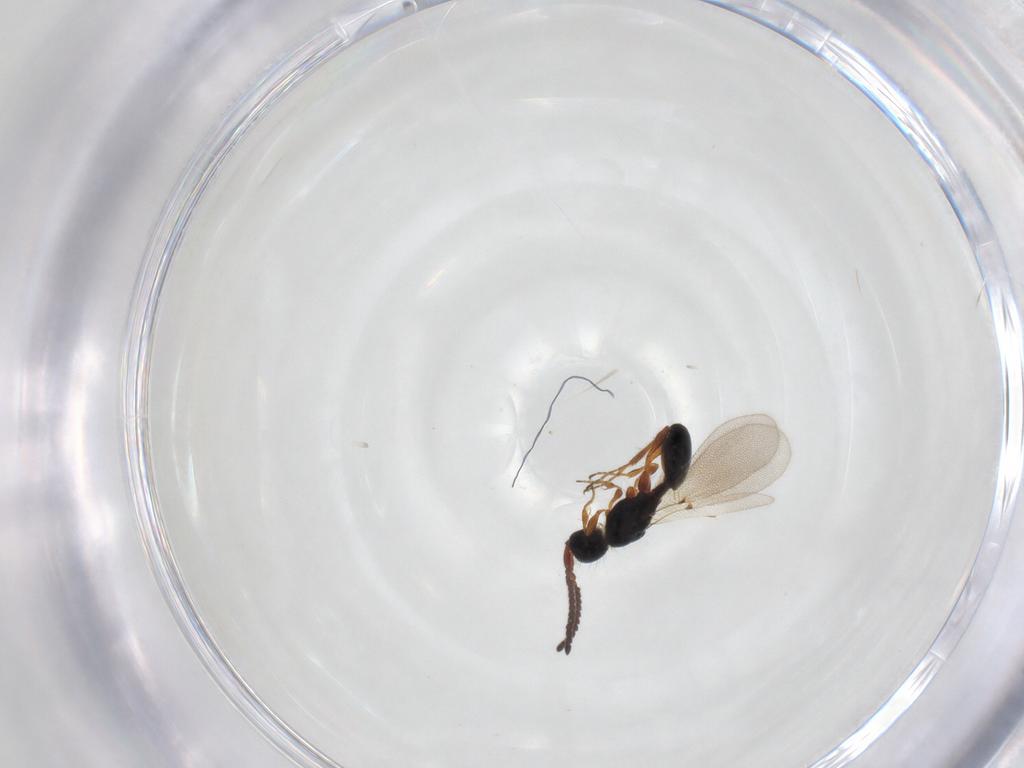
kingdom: Animalia
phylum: Arthropoda
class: Insecta
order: Hymenoptera
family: Diapriidae
